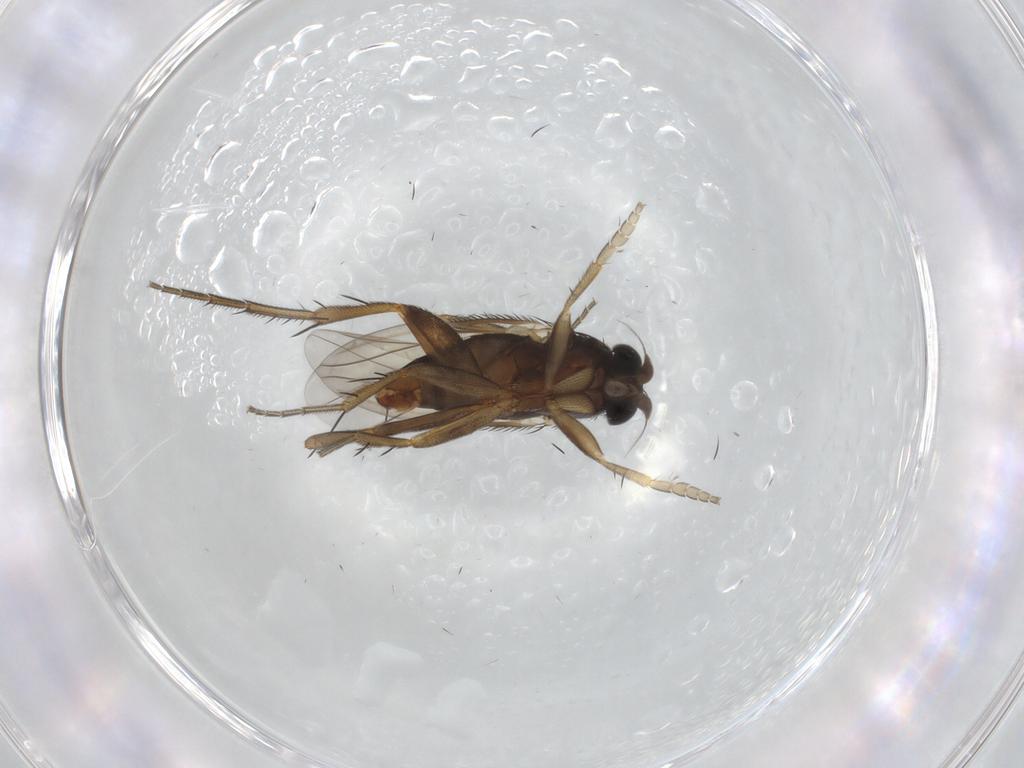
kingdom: Animalia
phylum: Arthropoda
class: Insecta
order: Diptera
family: Phoridae
